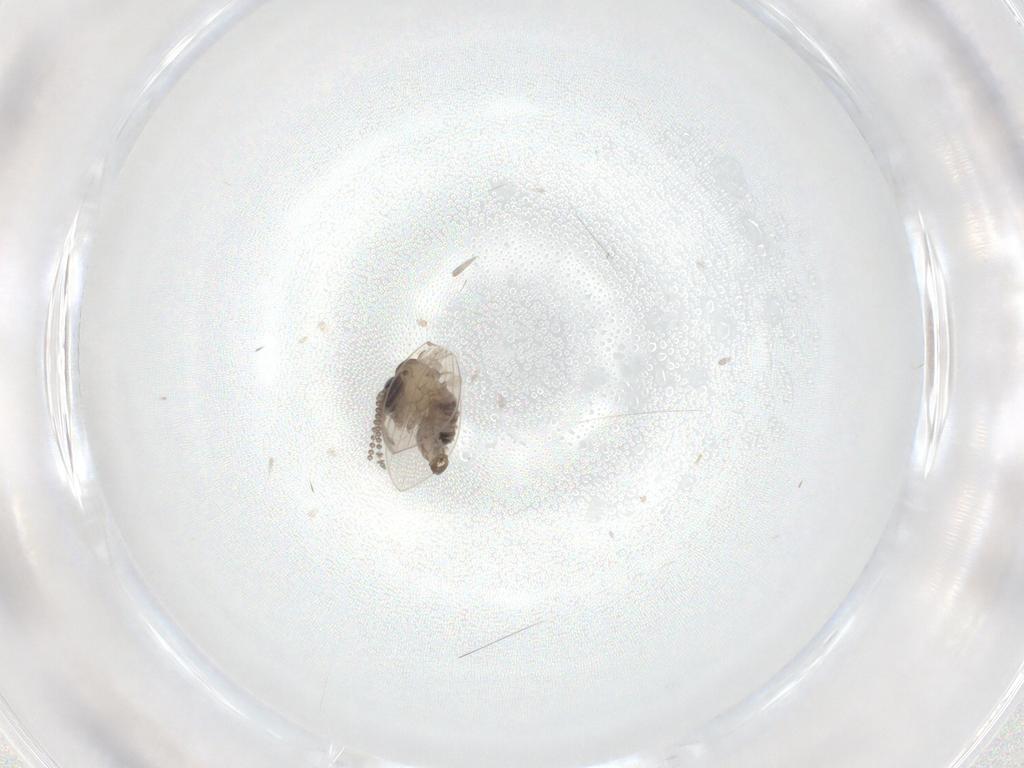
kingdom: Animalia
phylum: Arthropoda
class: Insecta
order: Diptera
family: Psychodidae
